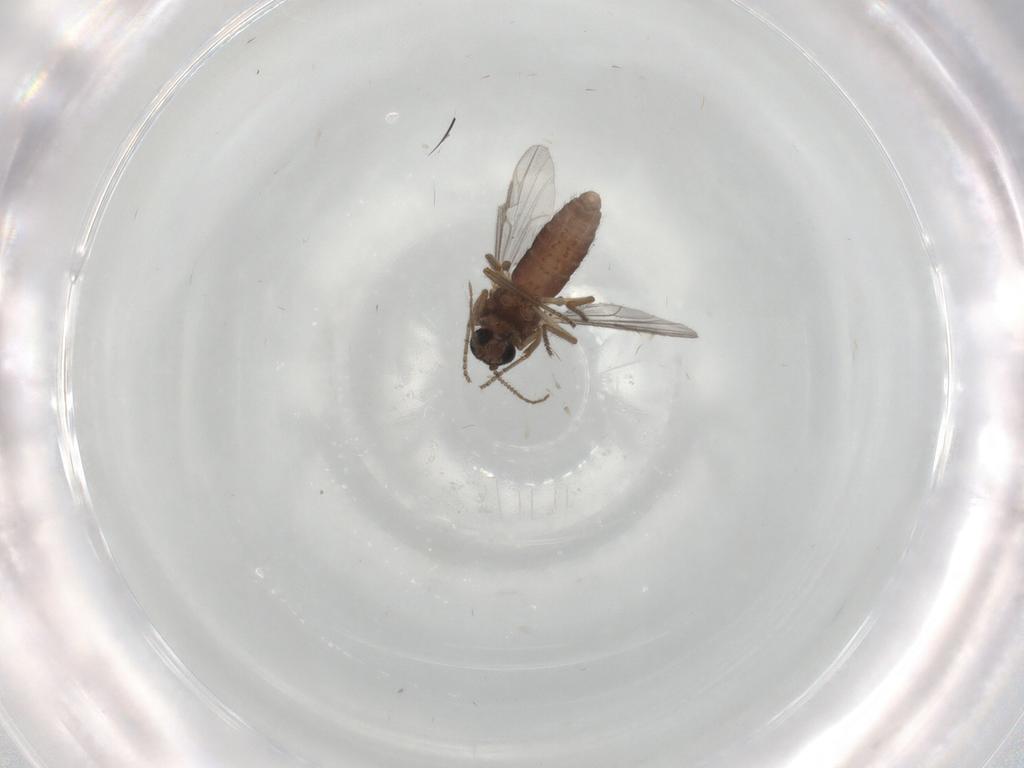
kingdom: Animalia
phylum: Arthropoda
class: Insecta
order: Diptera
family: Ceratopogonidae
